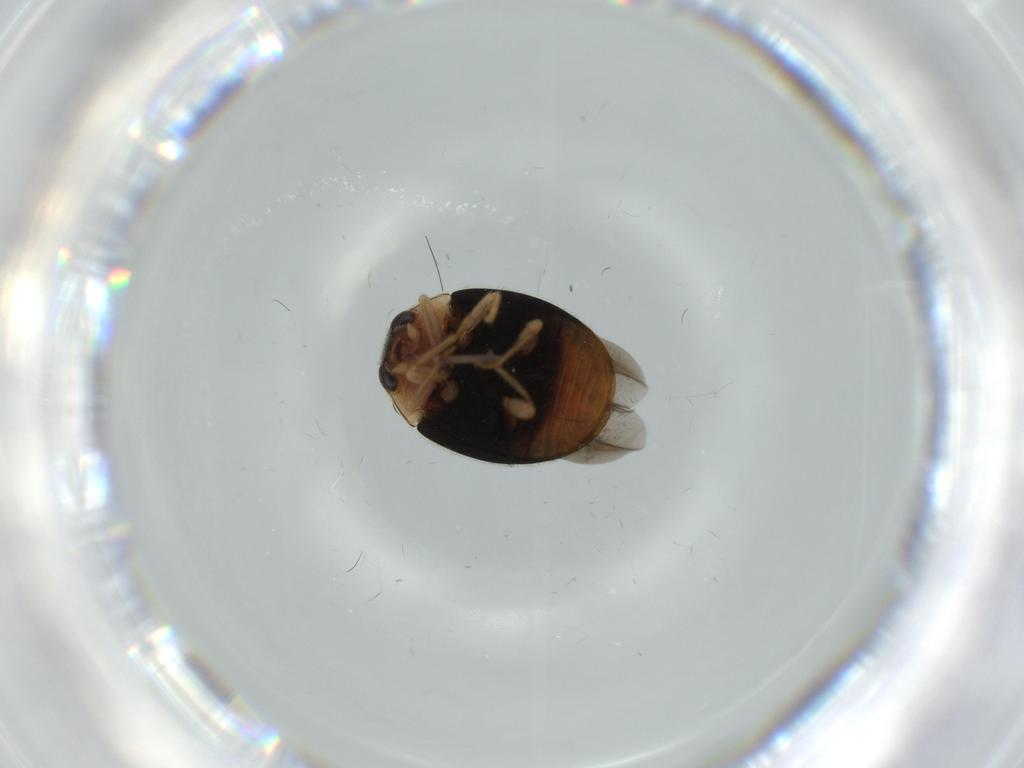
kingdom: Animalia
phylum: Arthropoda
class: Insecta
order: Coleoptera
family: Coccinellidae
